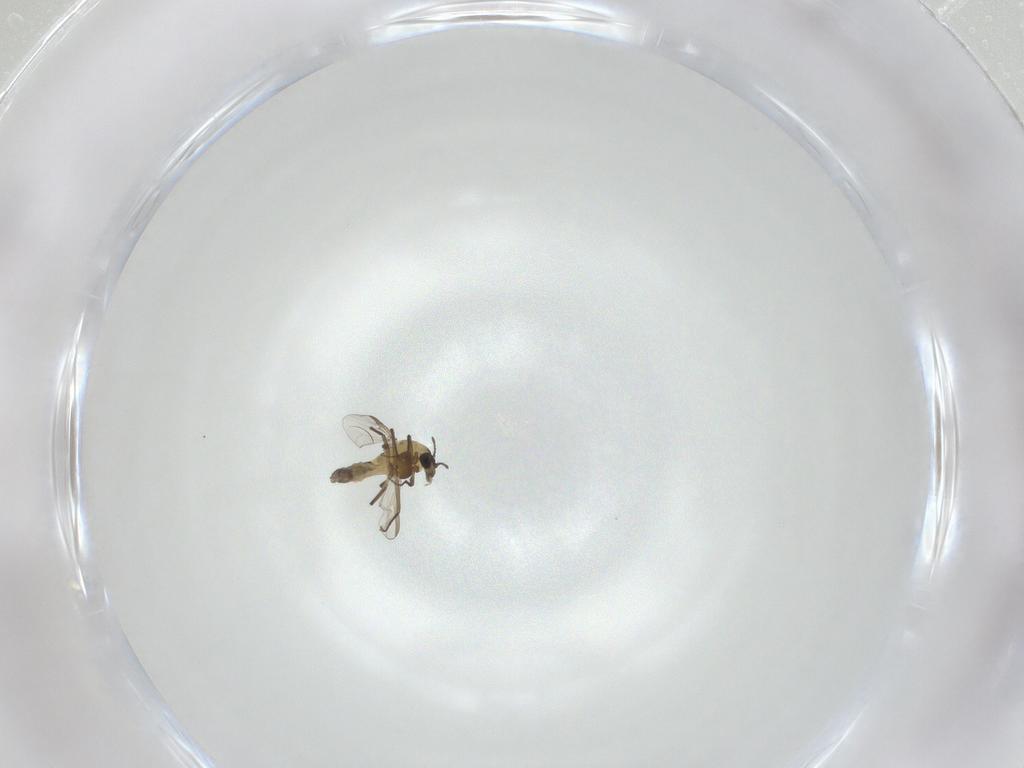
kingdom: Animalia
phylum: Arthropoda
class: Insecta
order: Diptera
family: Chironomidae
